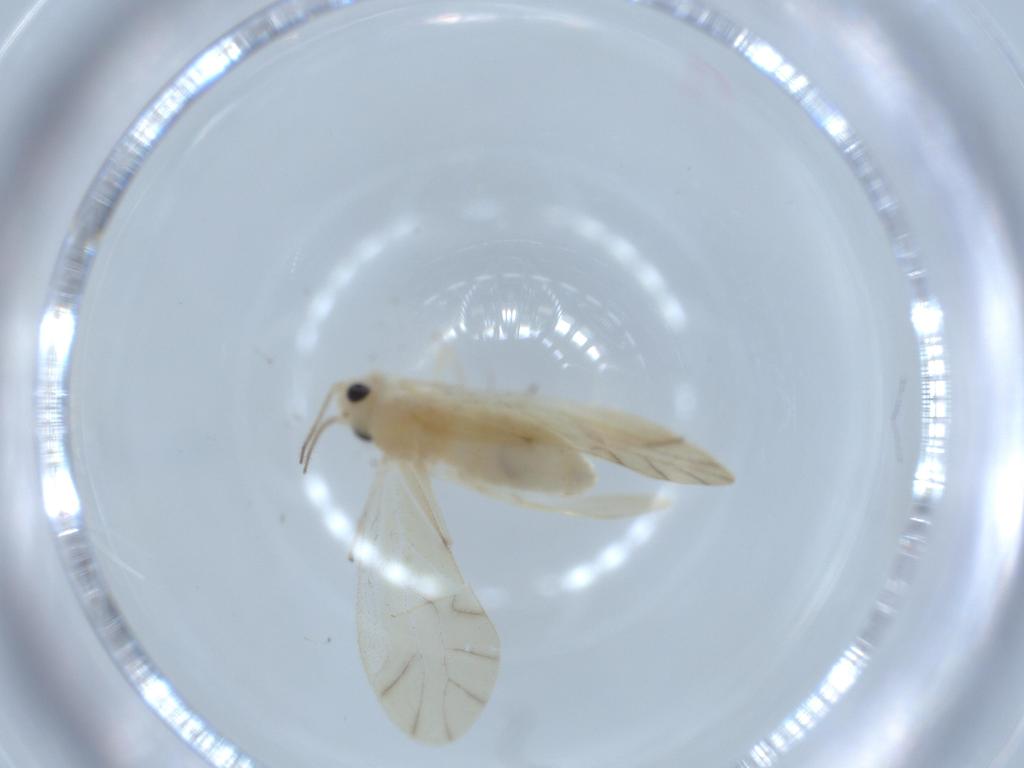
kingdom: Animalia
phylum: Arthropoda
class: Insecta
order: Psocodea
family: Caeciliusidae
